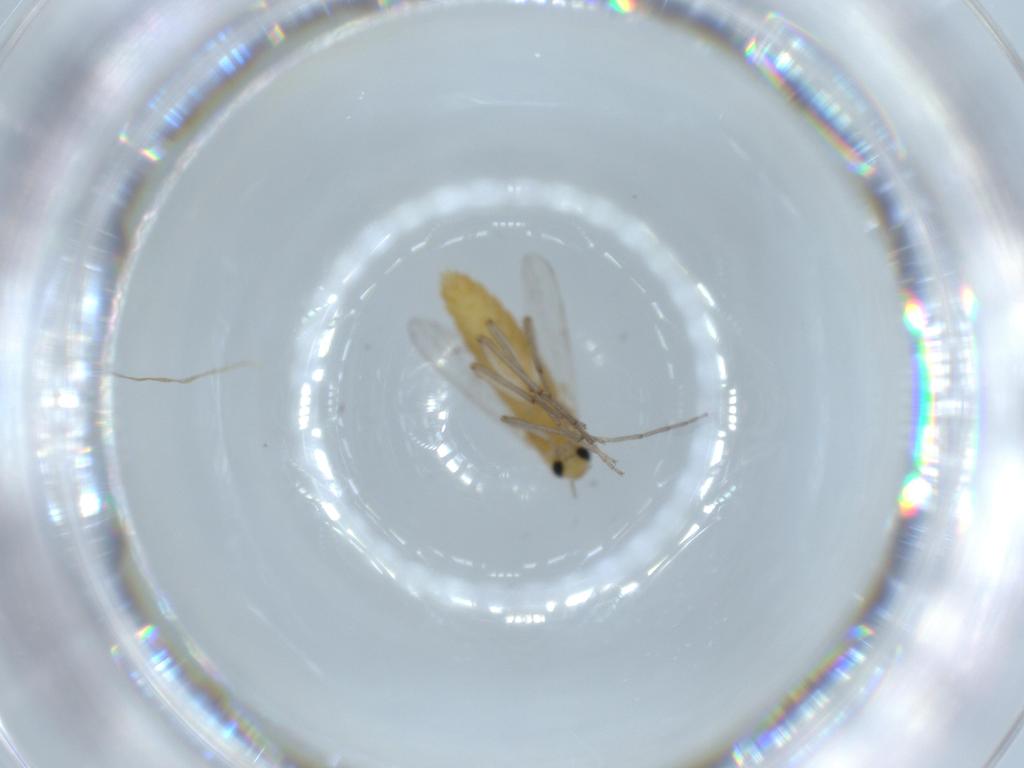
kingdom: Animalia
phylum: Arthropoda
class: Insecta
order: Diptera
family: Chironomidae
